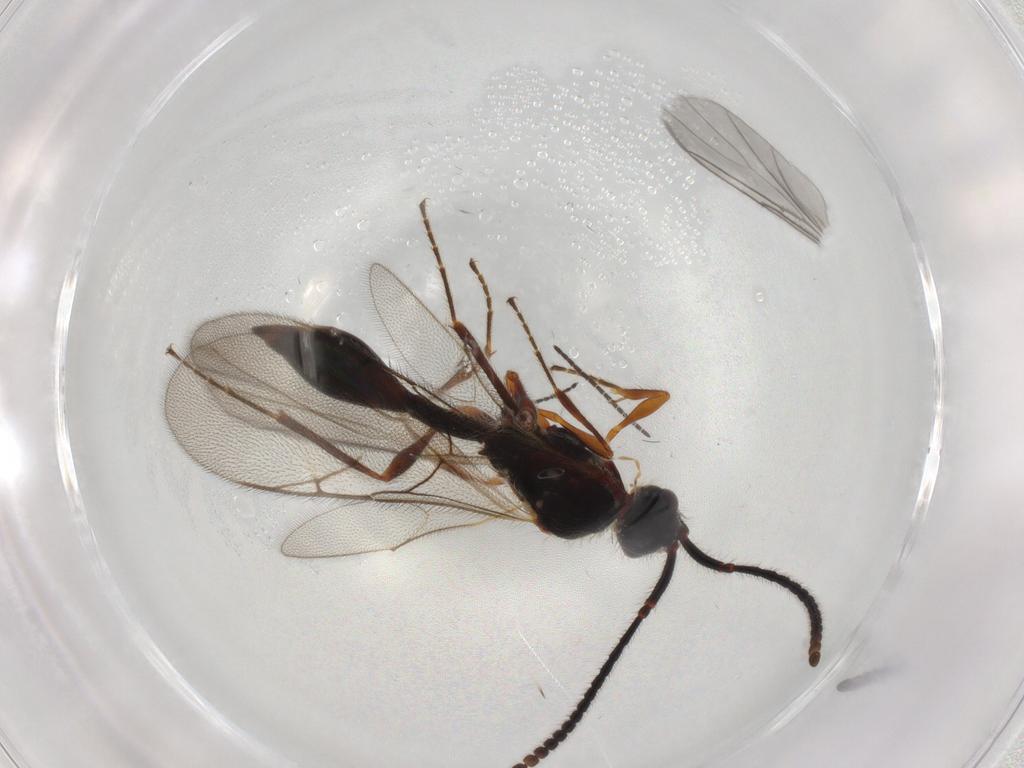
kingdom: Animalia
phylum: Arthropoda
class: Insecta
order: Hymenoptera
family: Diapriidae
